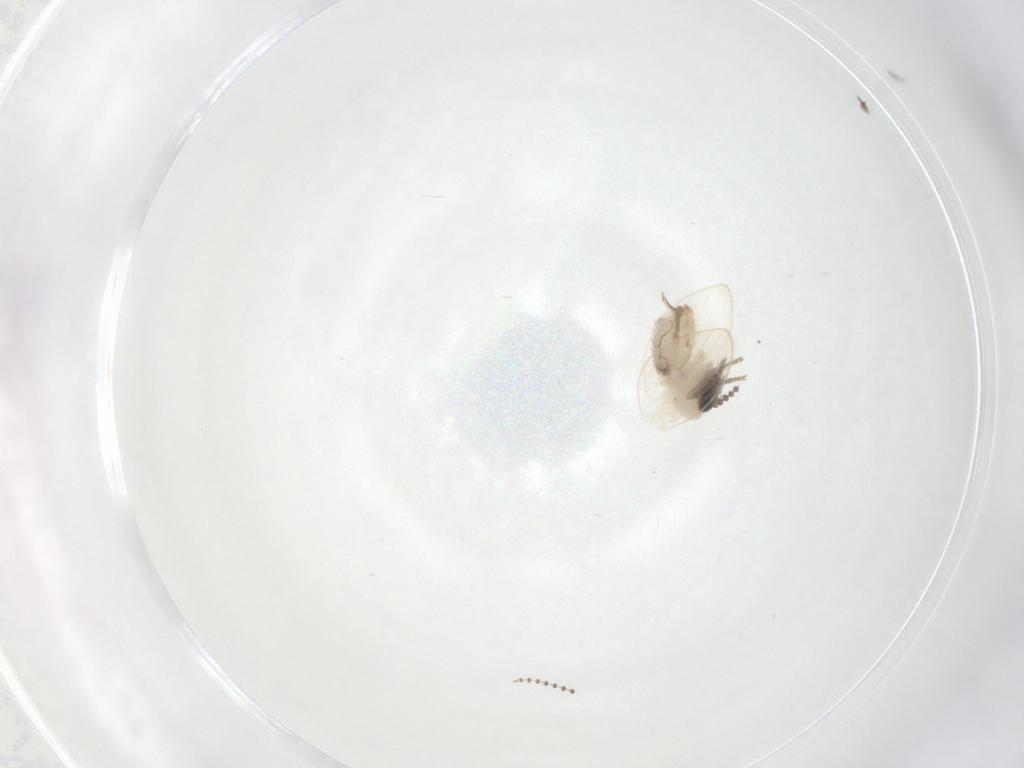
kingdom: Animalia
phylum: Arthropoda
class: Insecta
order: Diptera
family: Psychodidae
